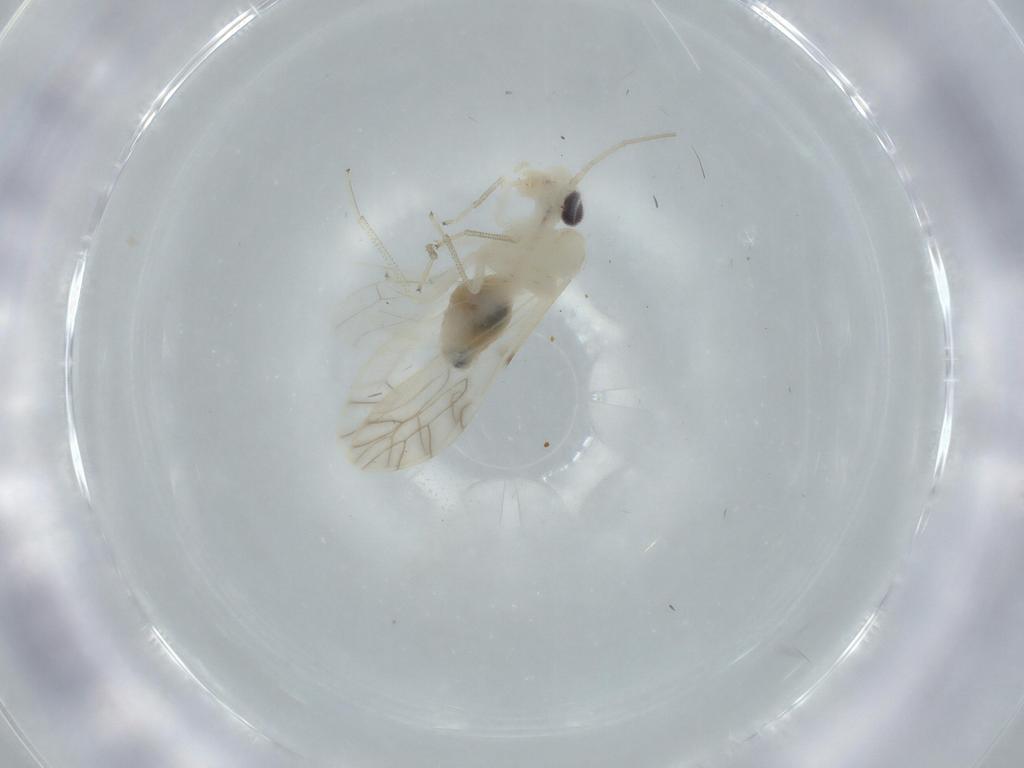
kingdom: Animalia
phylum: Arthropoda
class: Insecta
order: Psocodea
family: Caeciliusidae
